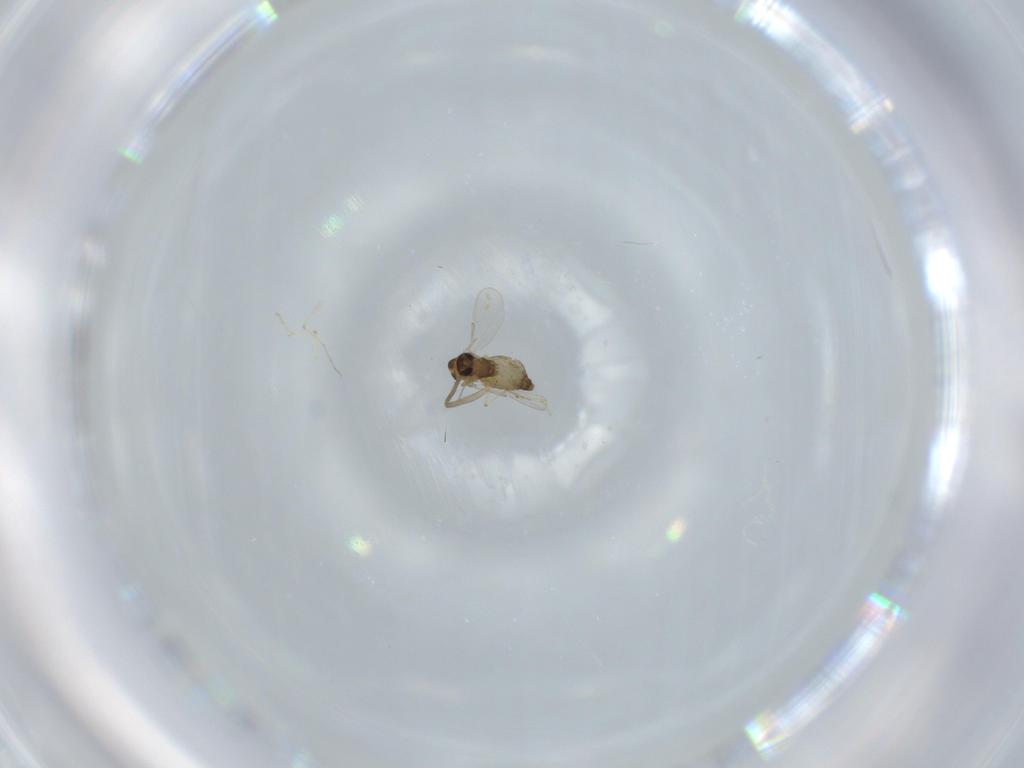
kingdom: Animalia
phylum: Arthropoda
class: Insecta
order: Diptera
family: Chironomidae
